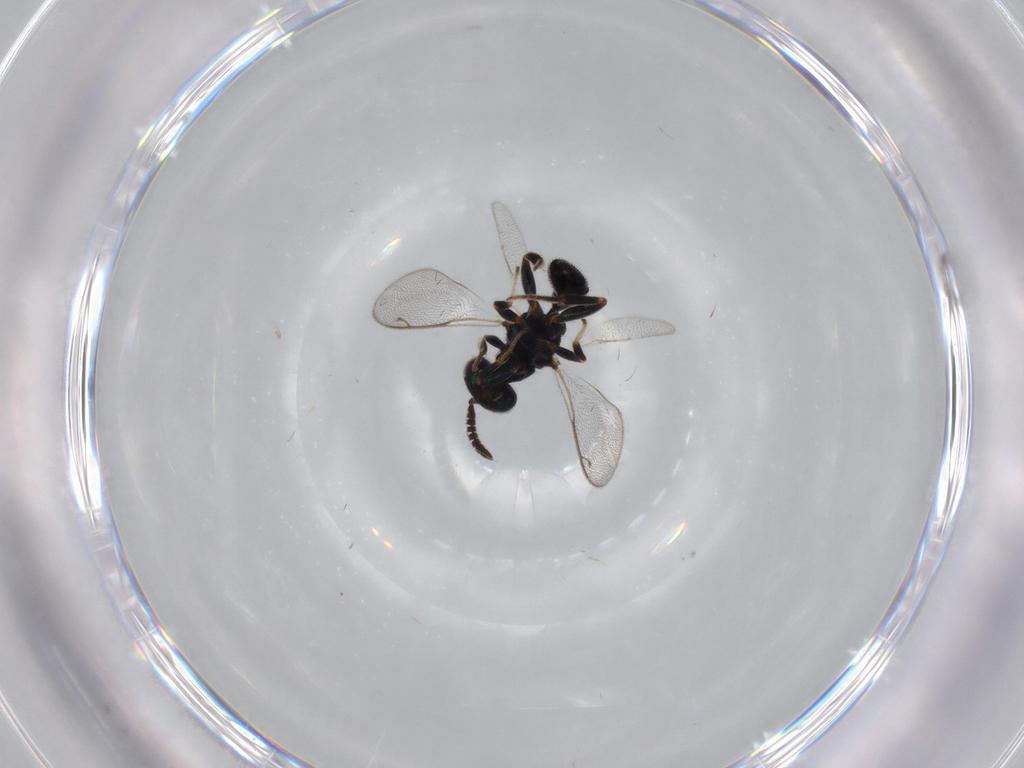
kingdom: Animalia
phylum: Arthropoda
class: Insecta
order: Hymenoptera
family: Cleonyminae
